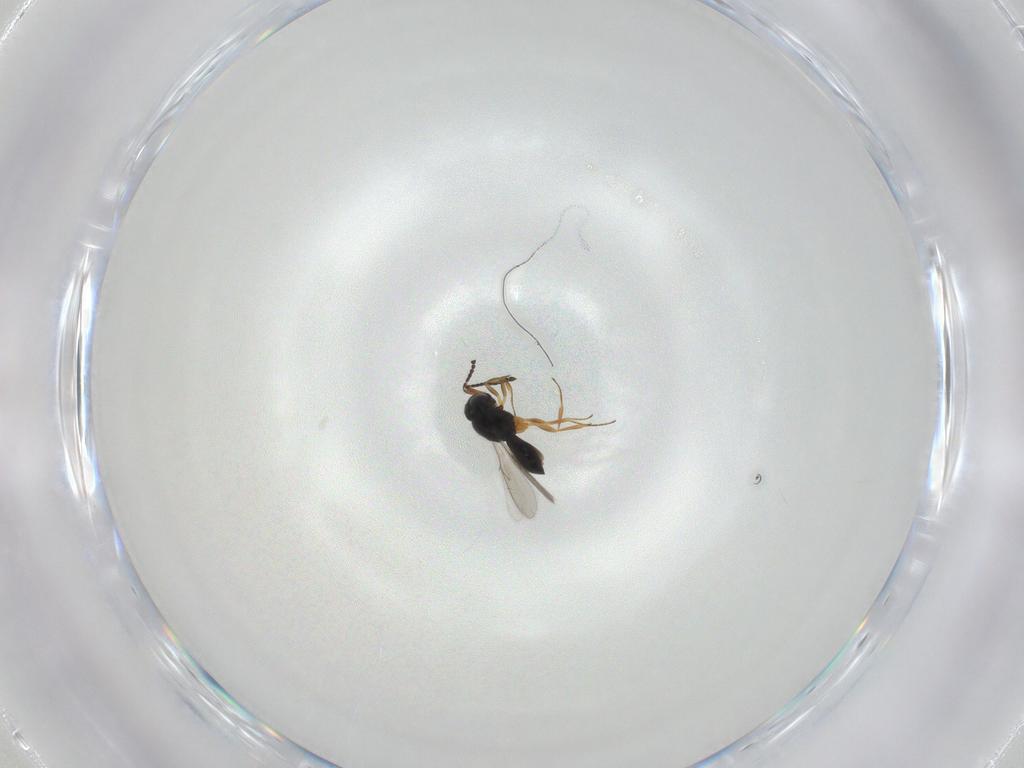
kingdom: Animalia
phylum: Arthropoda
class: Insecta
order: Hymenoptera
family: Scelionidae
